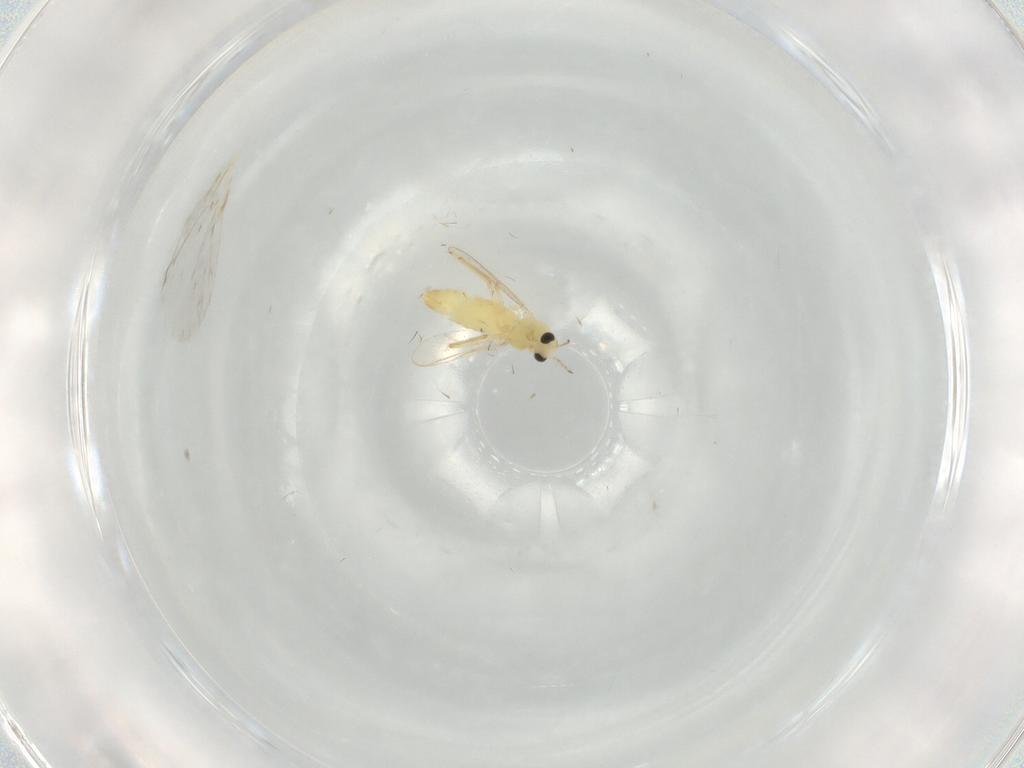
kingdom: Animalia
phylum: Arthropoda
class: Insecta
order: Diptera
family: Chironomidae
